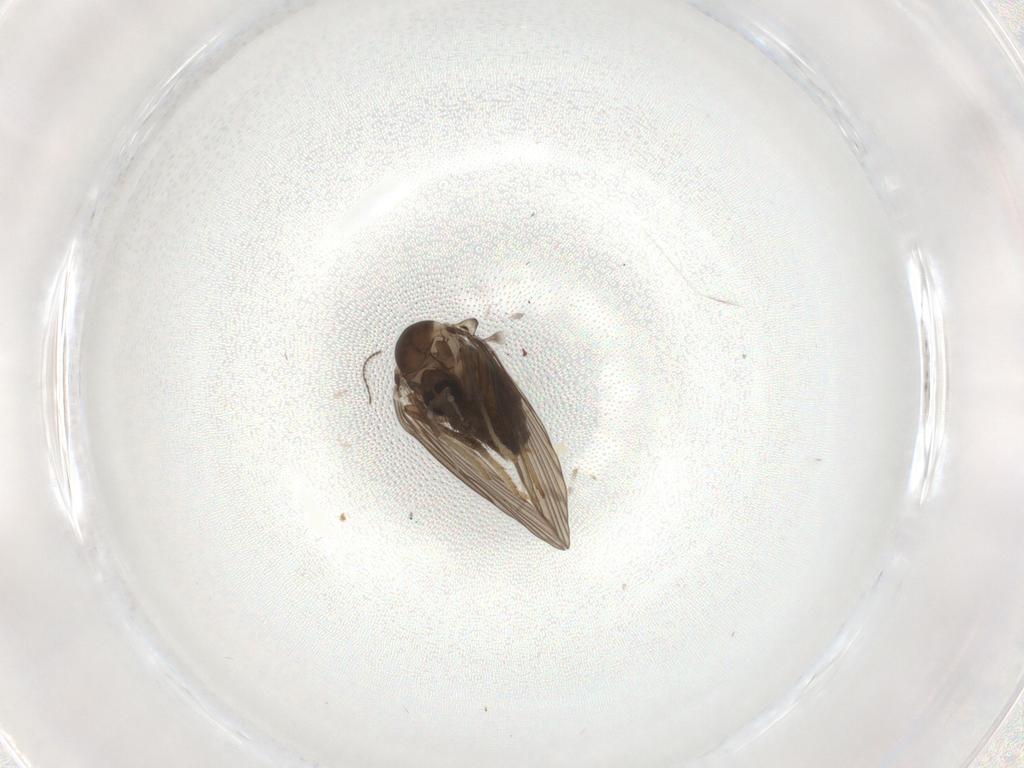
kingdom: Animalia
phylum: Arthropoda
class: Insecta
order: Diptera
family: Psychodidae
